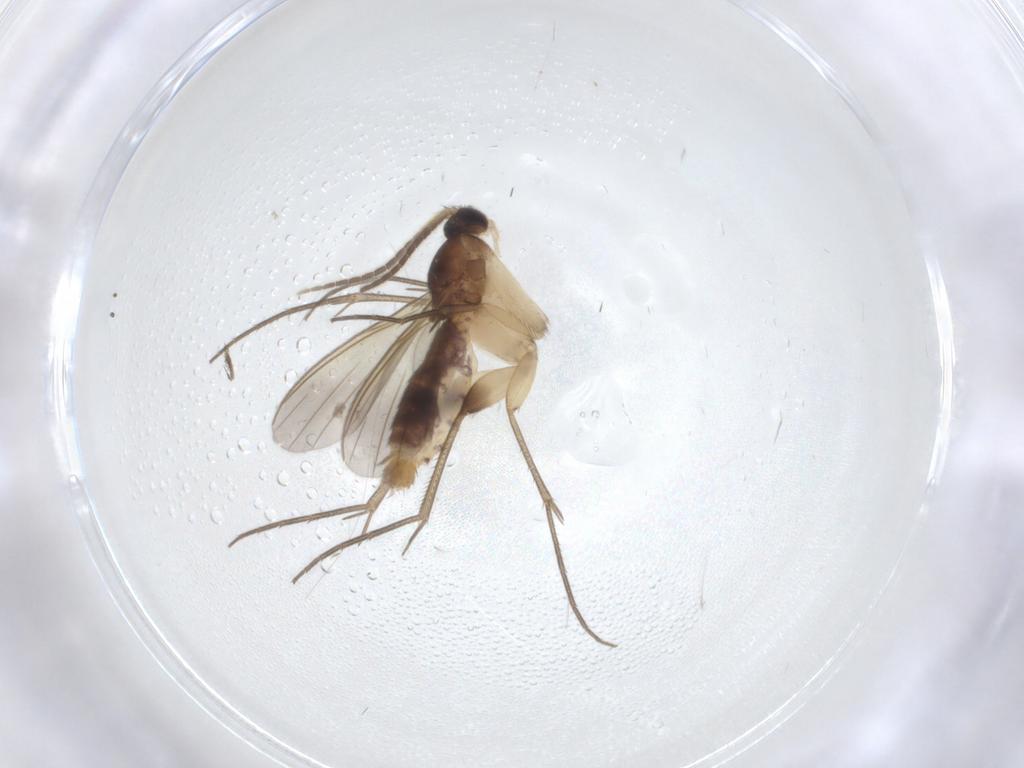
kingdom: Animalia
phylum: Arthropoda
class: Insecta
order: Diptera
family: Mycetophilidae
